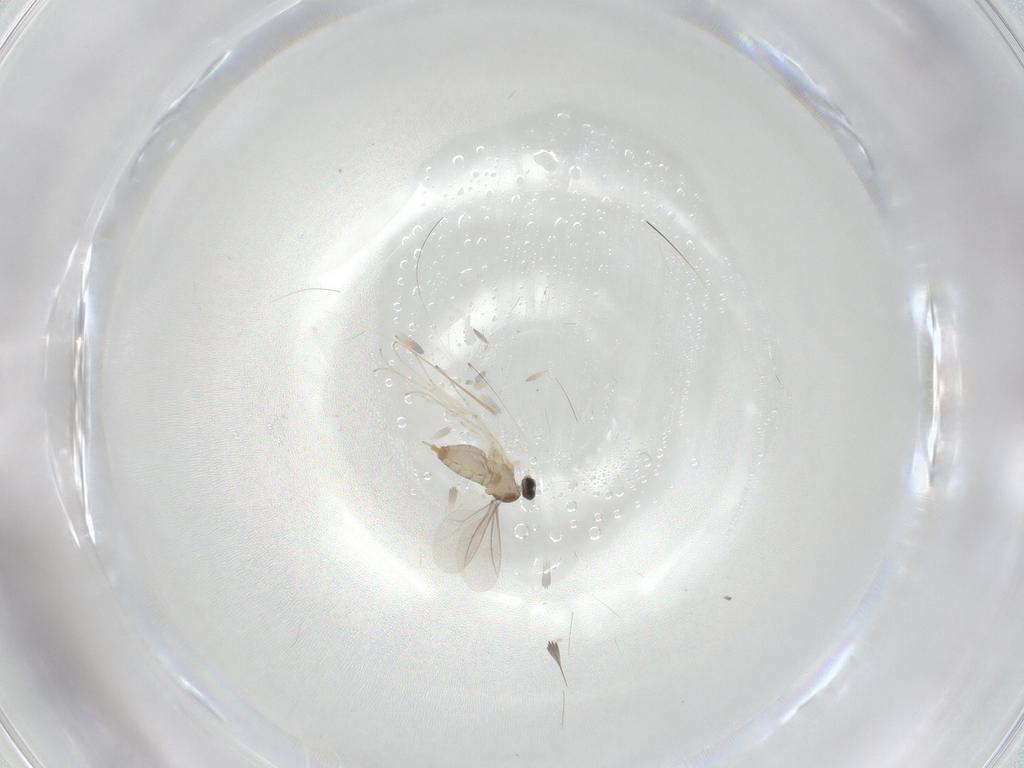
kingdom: Animalia
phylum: Arthropoda
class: Insecta
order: Diptera
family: Cecidomyiidae
